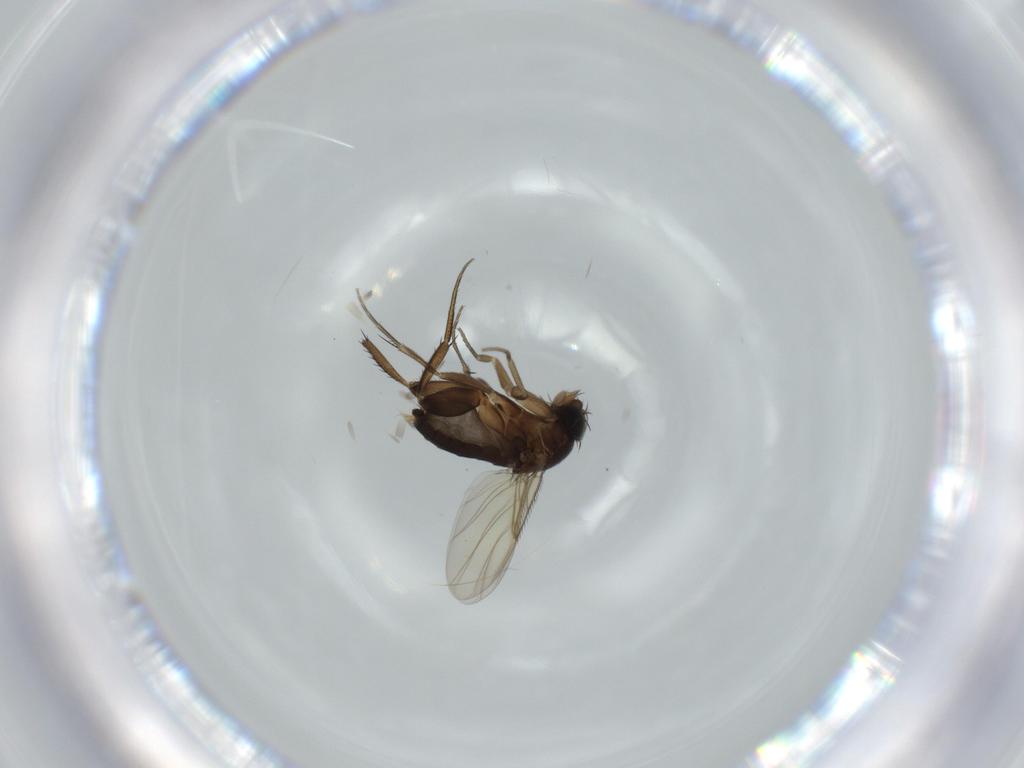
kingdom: Animalia
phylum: Arthropoda
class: Insecta
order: Diptera
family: Phoridae
